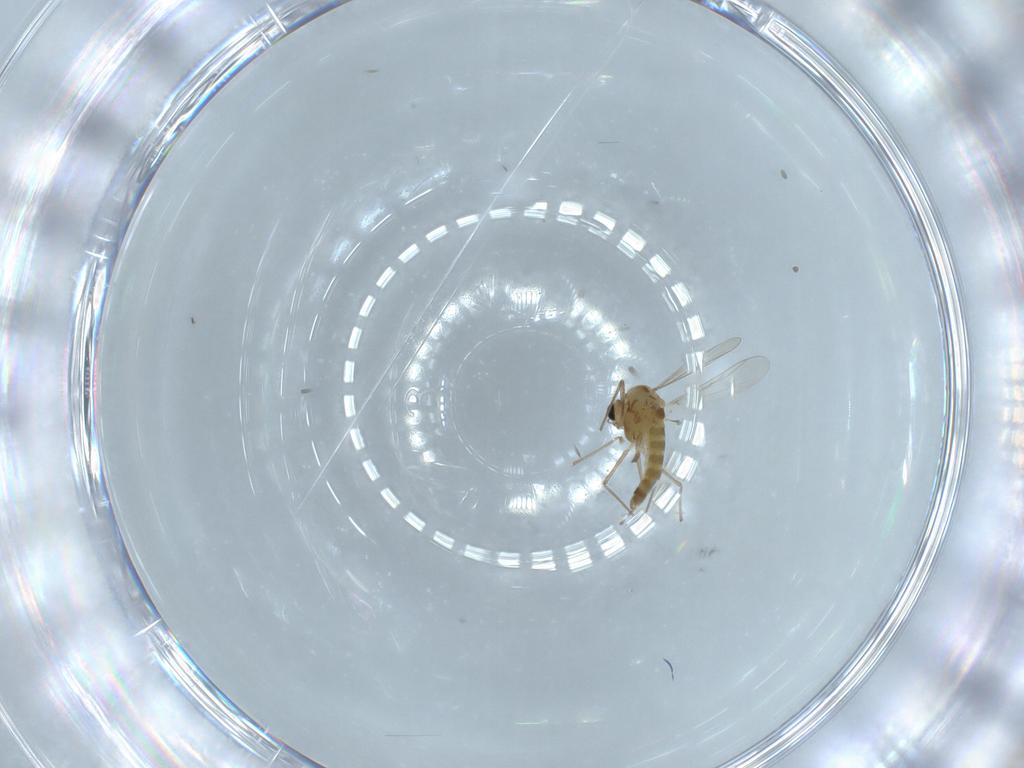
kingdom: Animalia
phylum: Arthropoda
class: Insecta
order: Diptera
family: Chironomidae
